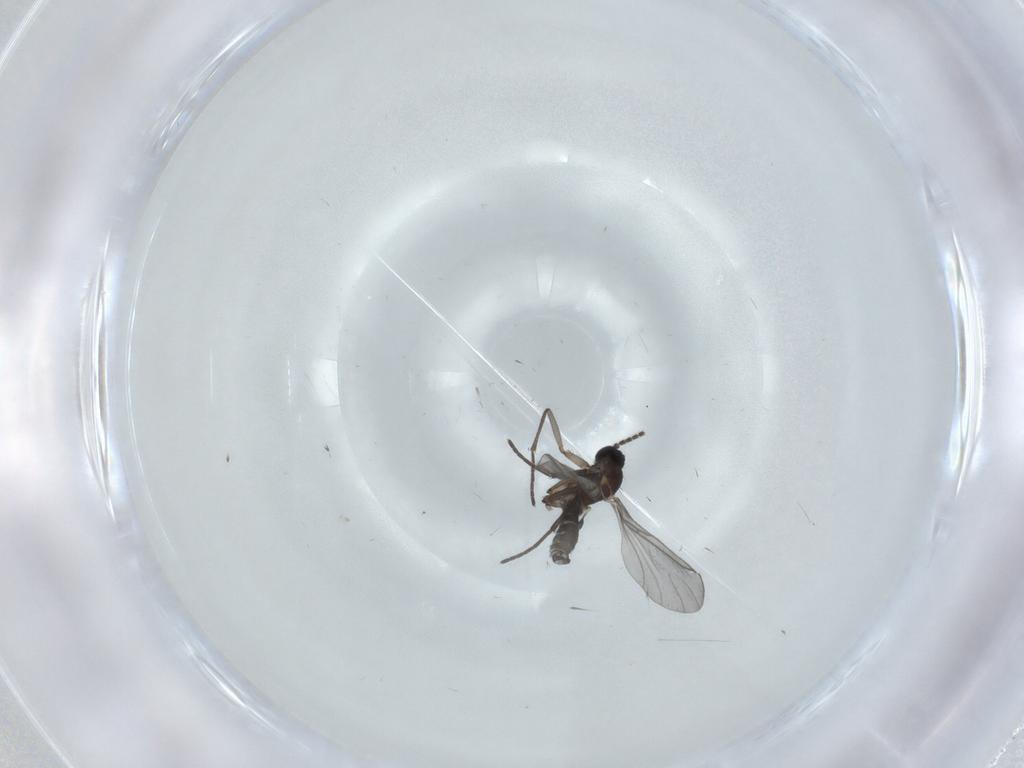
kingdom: Animalia
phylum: Arthropoda
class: Insecta
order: Diptera
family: Sciaridae
